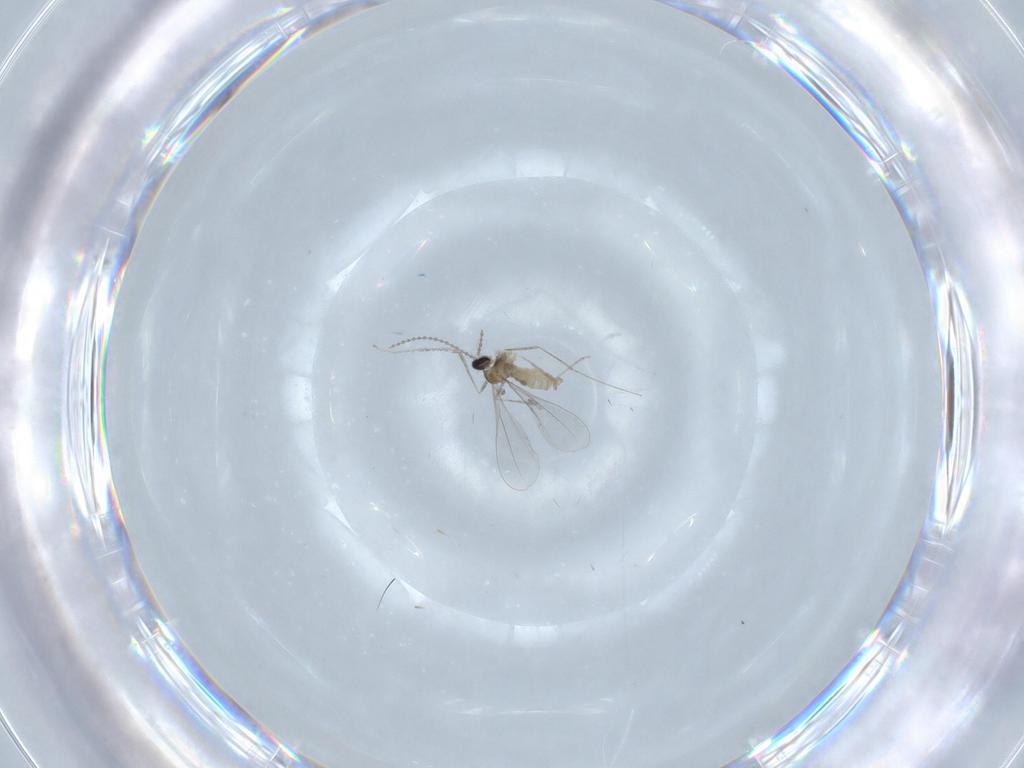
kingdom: Animalia
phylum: Arthropoda
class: Insecta
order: Diptera
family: Cecidomyiidae
